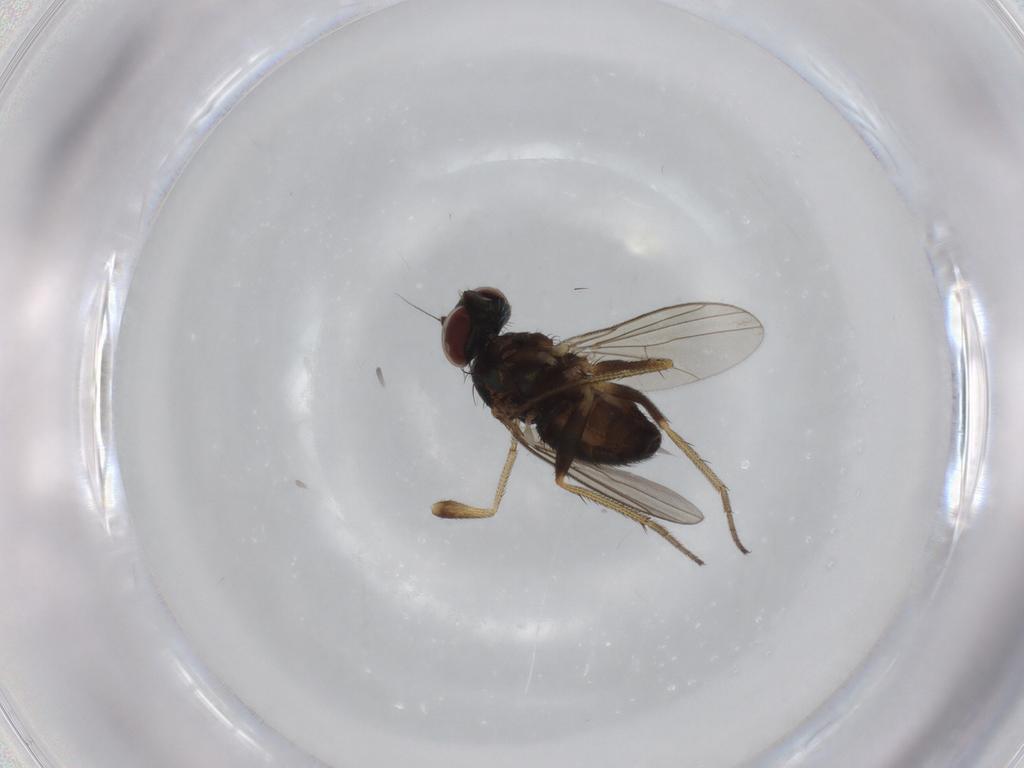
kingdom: Animalia
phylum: Arthropoda
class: Insecta
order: Diptera
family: Dolichopodidae
